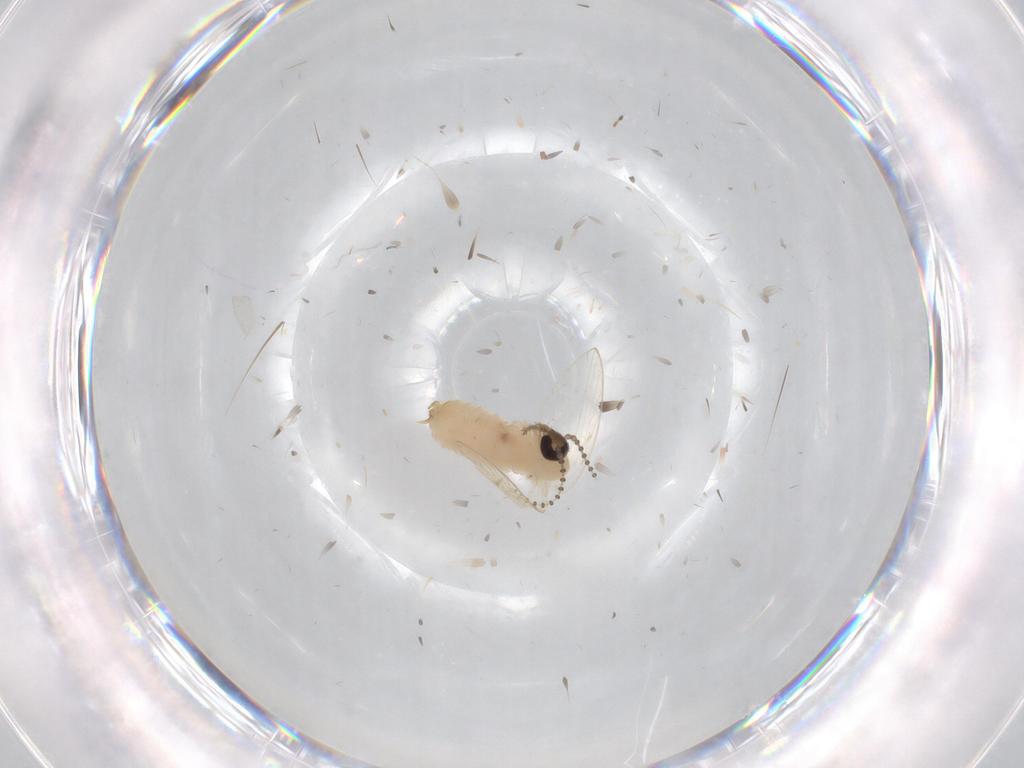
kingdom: Animalia
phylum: Arthropoda
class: Insecta
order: Diptera
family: Psychodidae
